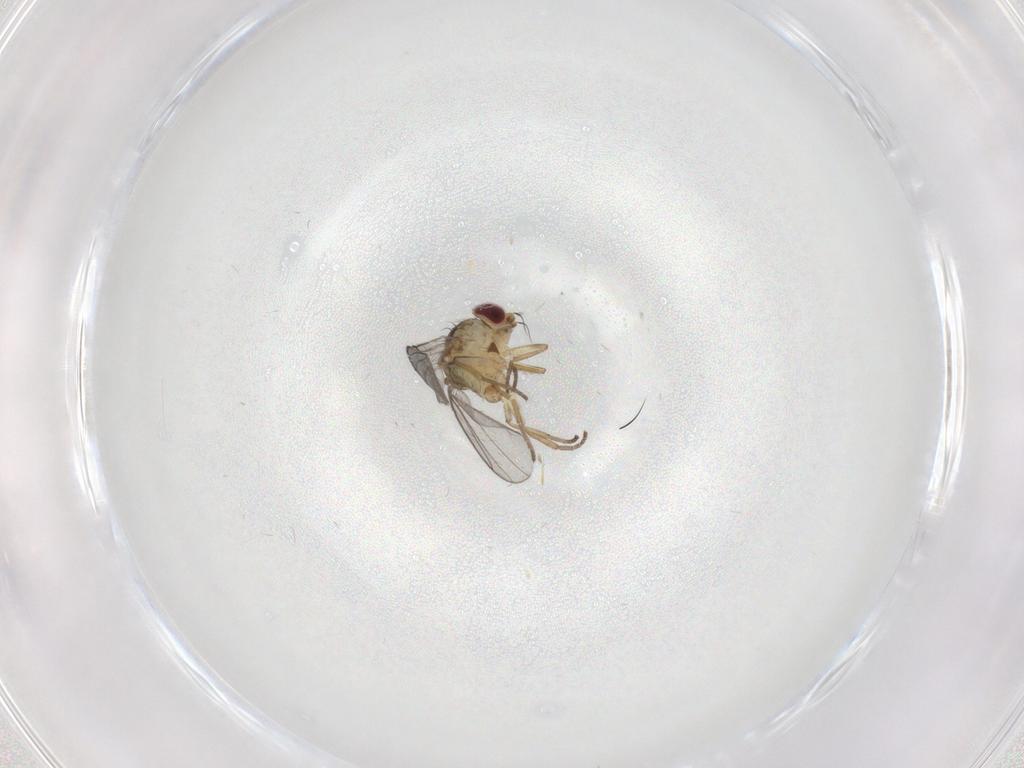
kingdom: Animalia
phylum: Arthropoda
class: Insecta
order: Diptera
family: Agromyzidae
